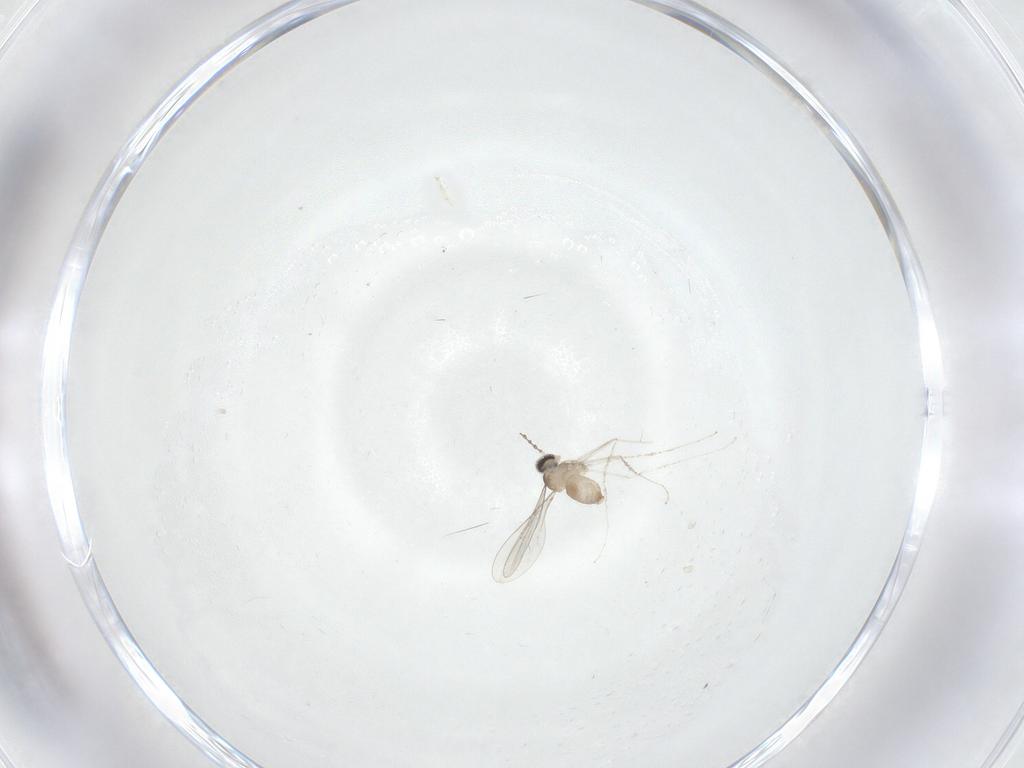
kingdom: Animalia
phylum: Arthropoda
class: Insecta
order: Diptera
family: Cecidomyiidae
